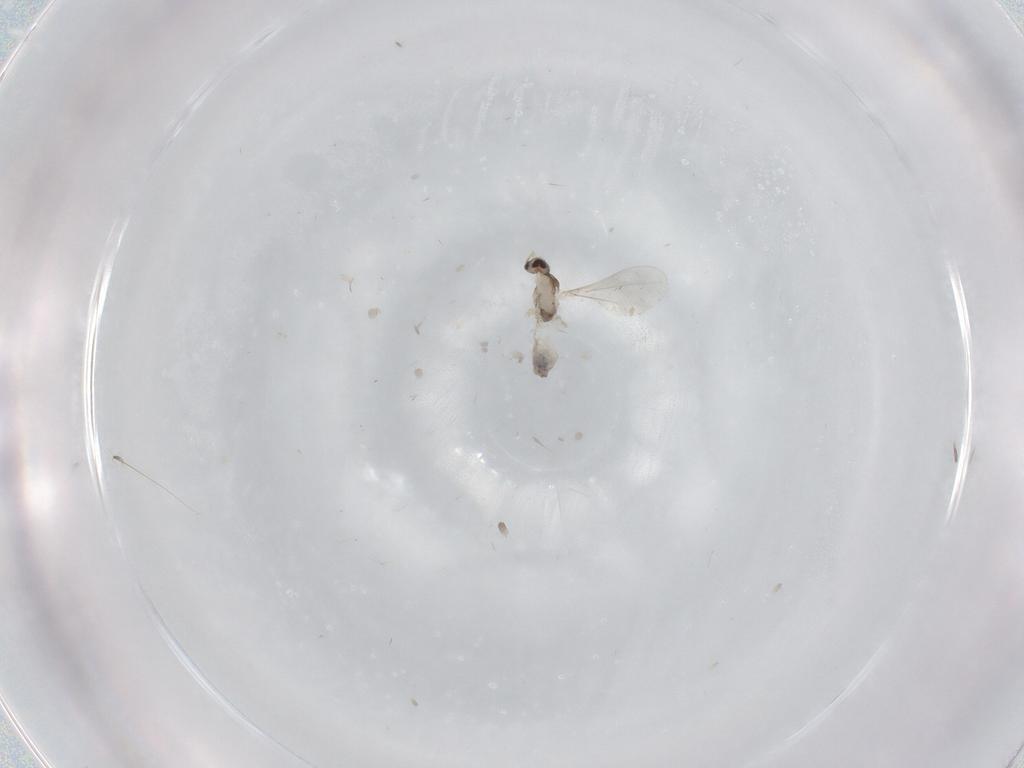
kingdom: Animalia
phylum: Arthropoda
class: Insecta
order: Diptera
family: Cecidomyiidae
